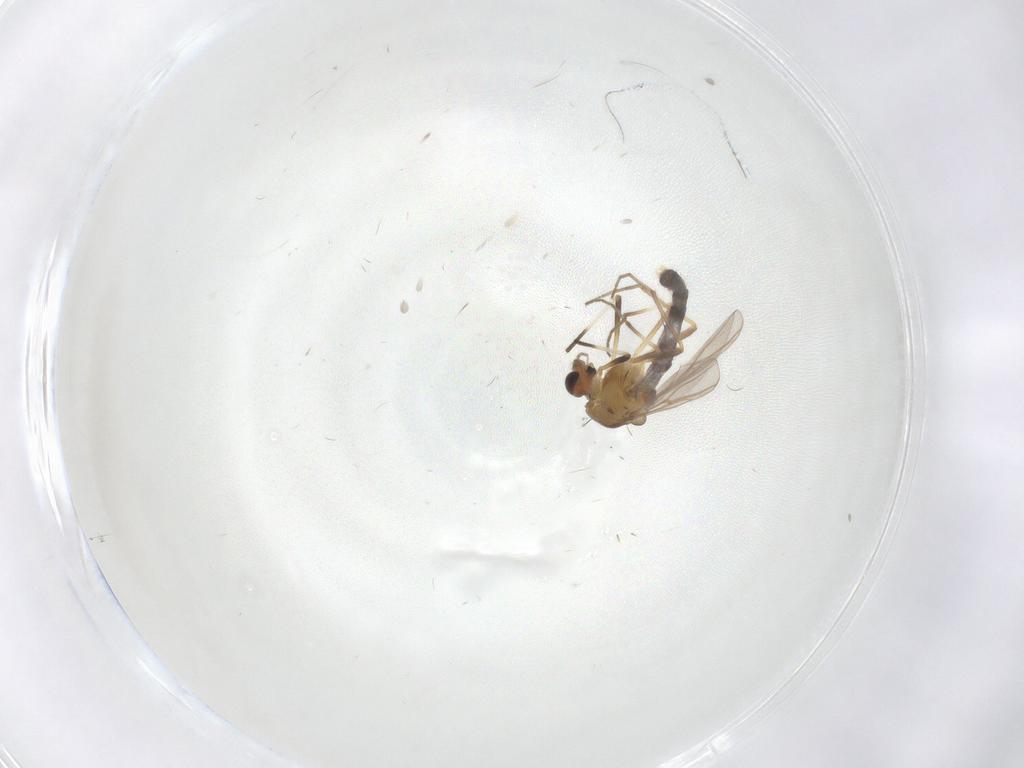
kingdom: Animalia
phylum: Arthropoda
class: Insecta
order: Diptera
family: Chironomidae
